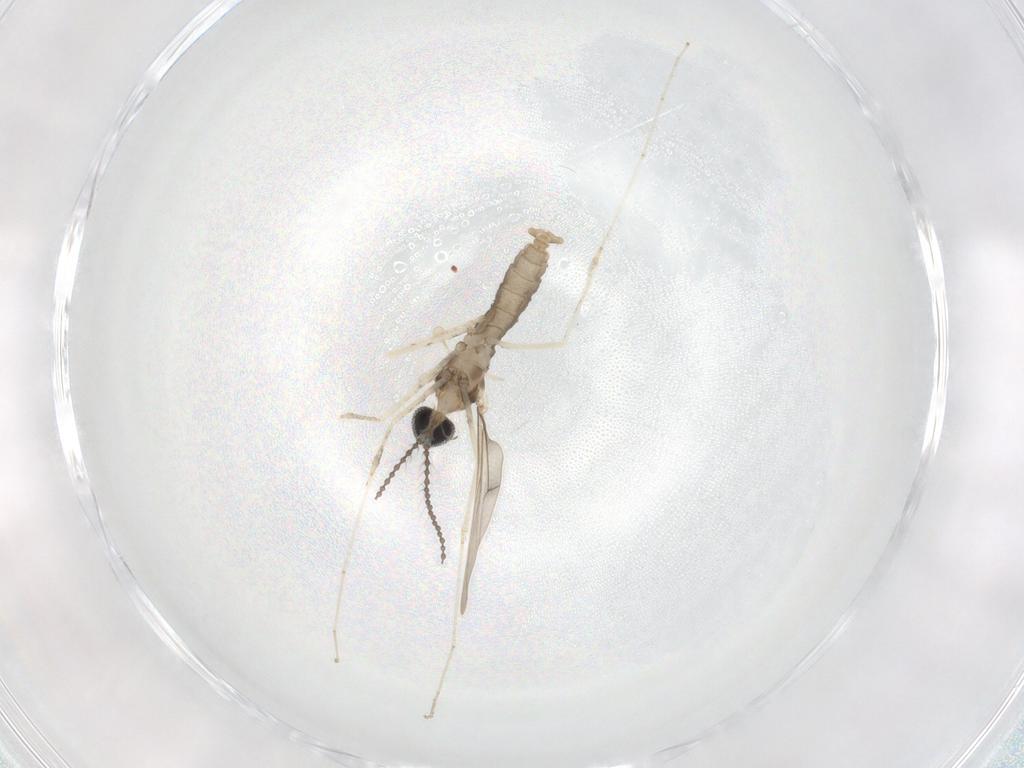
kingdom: Animalia
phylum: Arthropoda
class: Insecta
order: Diptera
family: Cecidomyiidae
